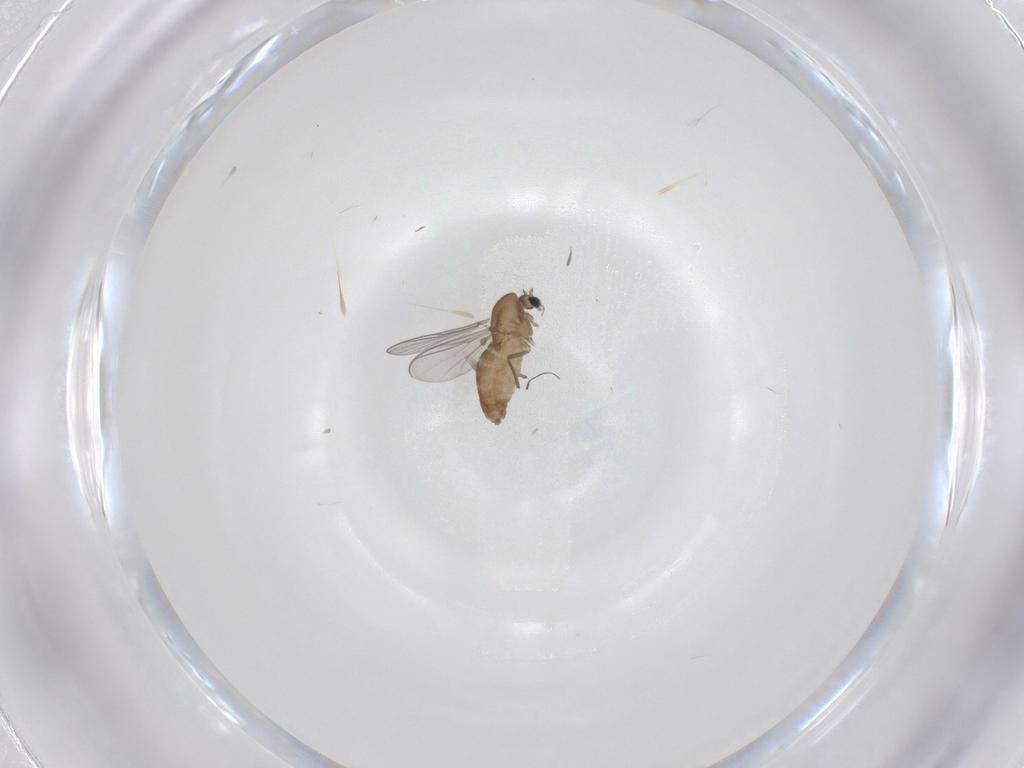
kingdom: Animalia
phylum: Arthropoda
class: Insecta
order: Diptera
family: Chironomidae
